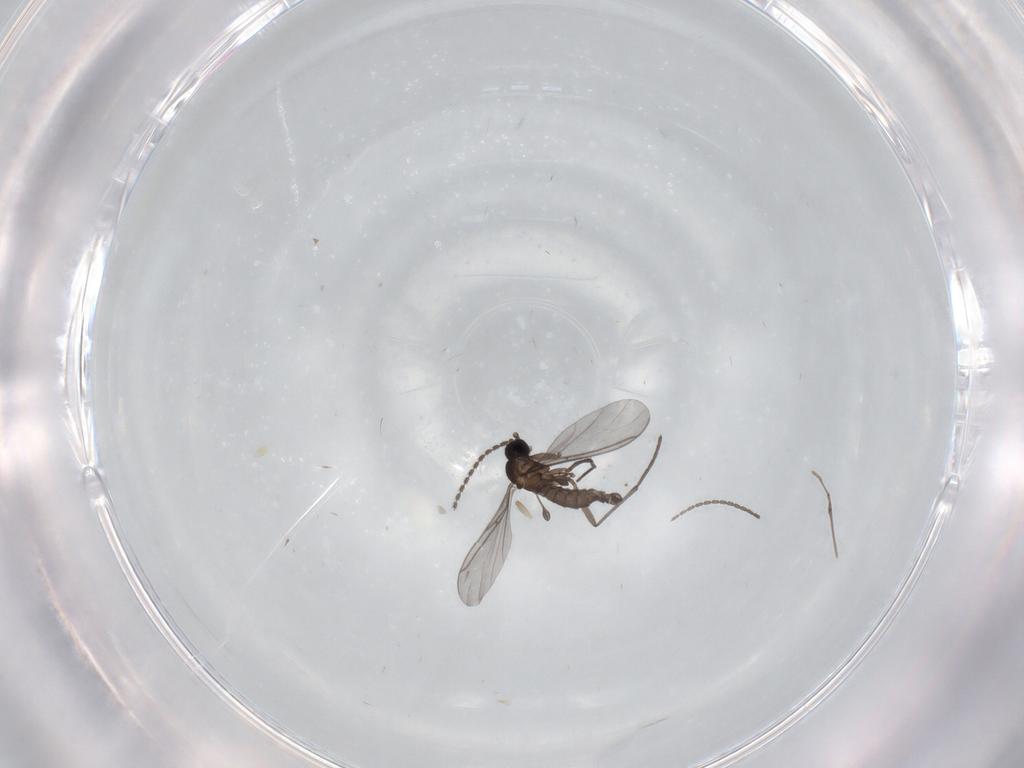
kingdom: Animalia
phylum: Arthropoda
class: Insecta
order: Diptera
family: Sciaridae
